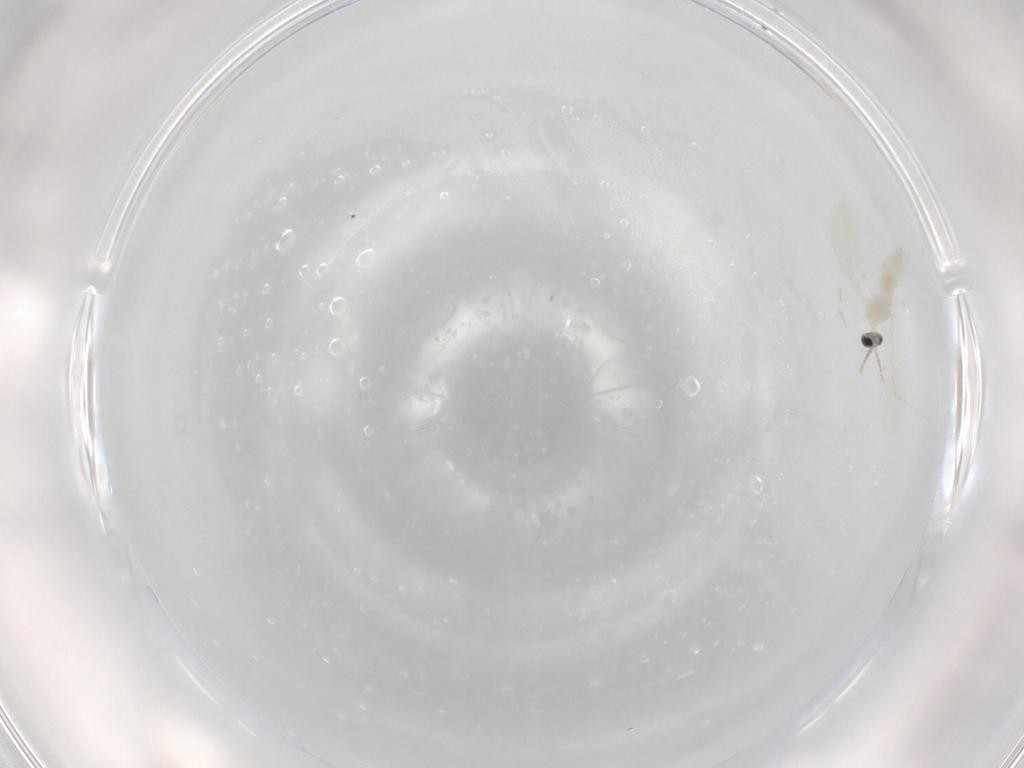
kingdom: Animalia
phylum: Arthropoda
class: Insecta
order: Diptera
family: Cecidomyiidae
